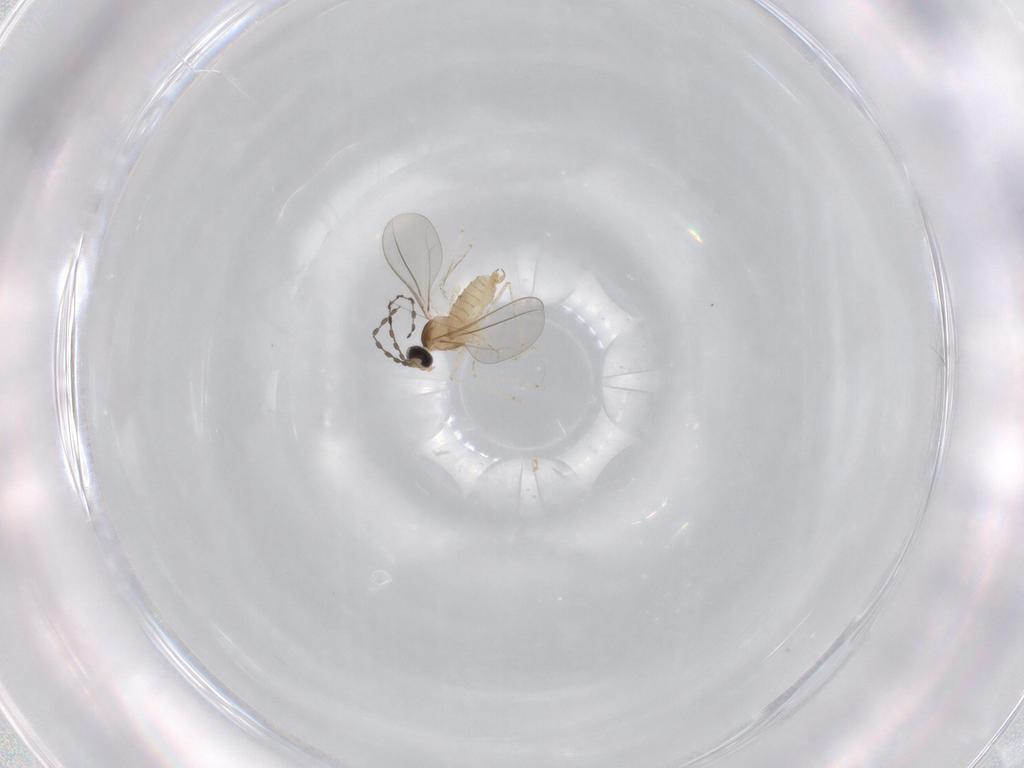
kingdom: Animalia
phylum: Arthropoda
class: Insecta
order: Diptera
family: Cecidomyiidae
